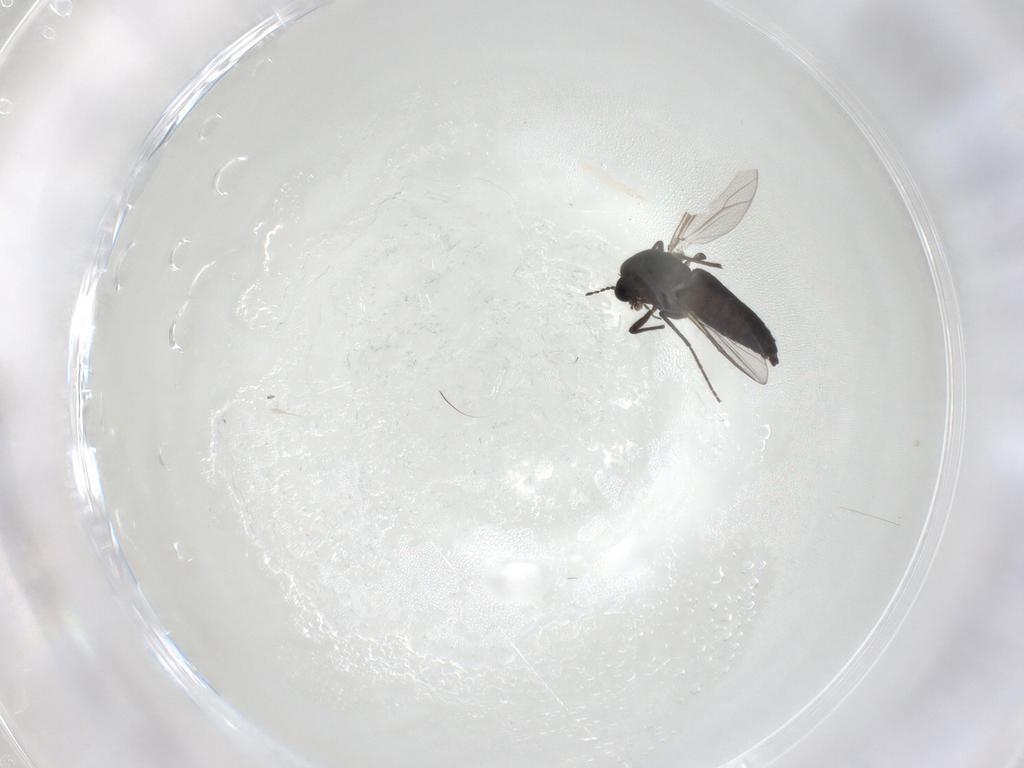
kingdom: Animalia
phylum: Arthropoda
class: Insecta
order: Diptera
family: Chironomidae
